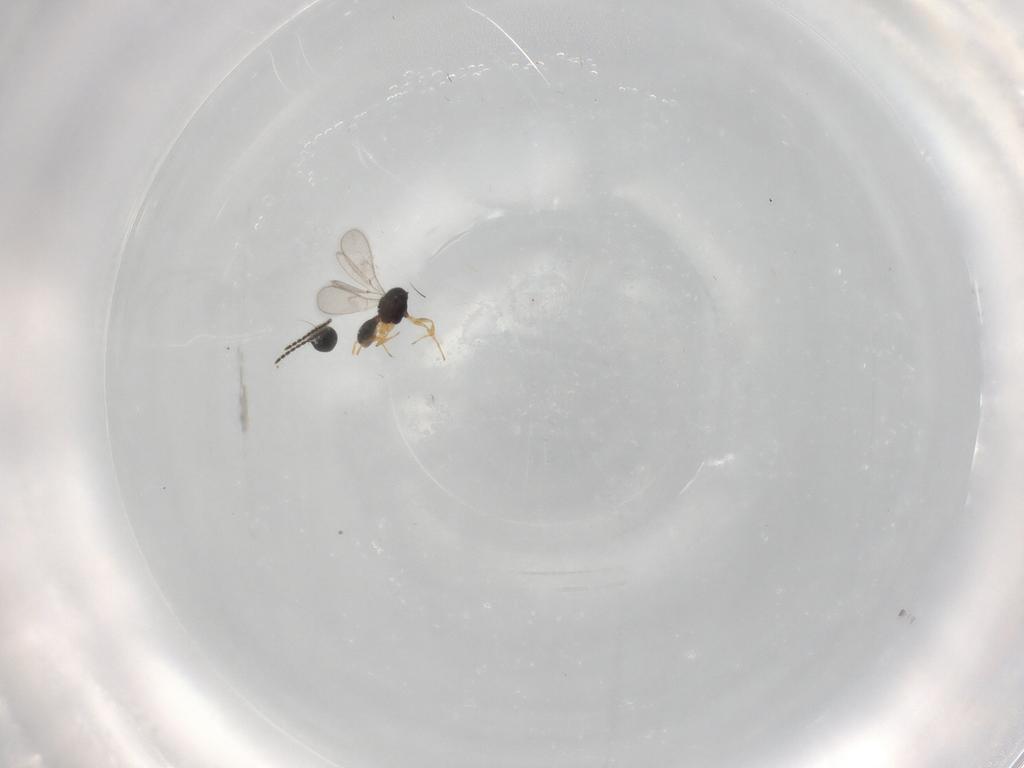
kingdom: Animalia
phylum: Arthropoda
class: Insecta
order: Hymenoptera
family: Scelionidae
